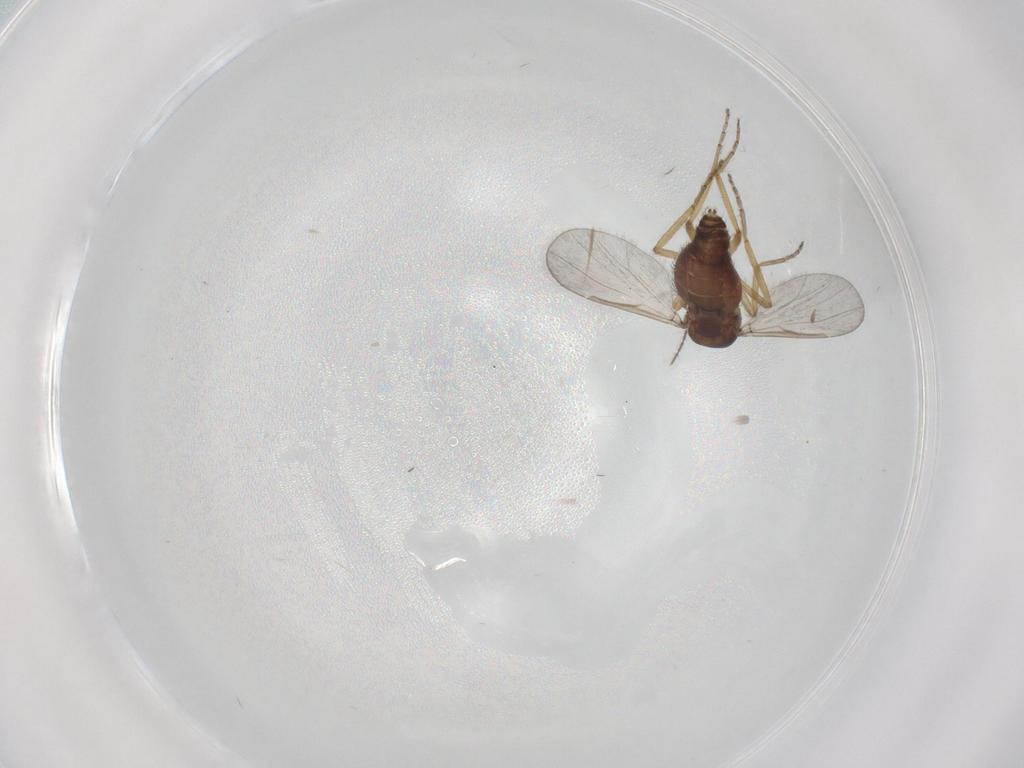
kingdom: Animalia
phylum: Arthropoda
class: Insecta
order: Diptera
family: Ceratopogonidae
